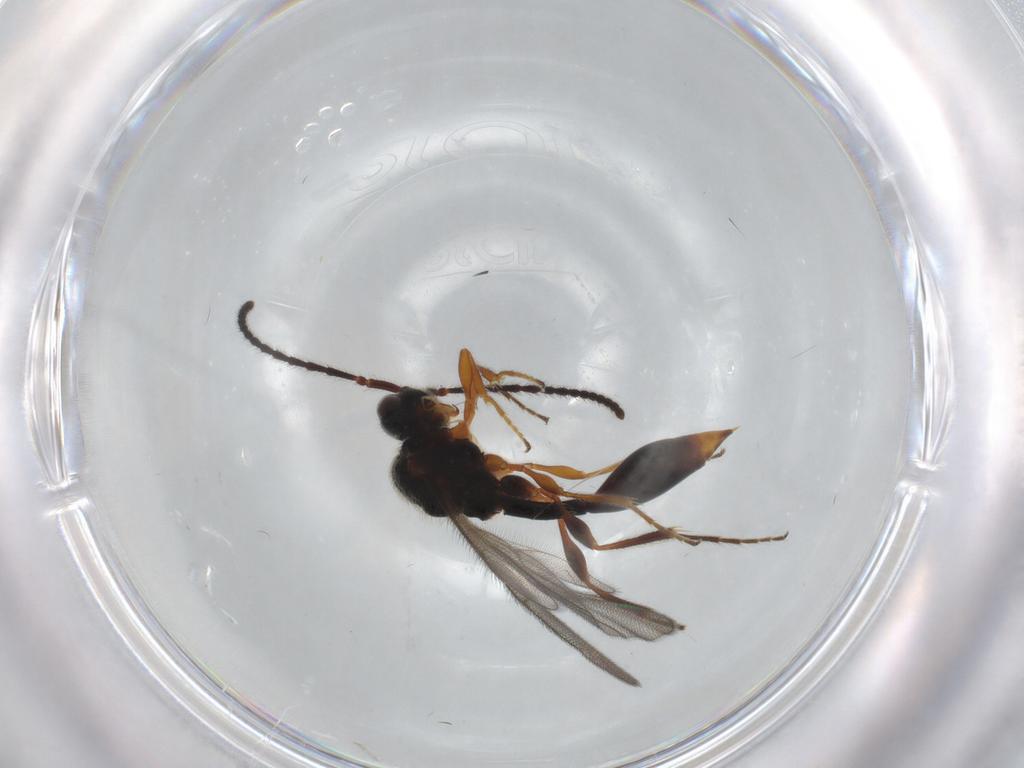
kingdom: Animalia
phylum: Arthropoda
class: Insecta
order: Hymenoptera
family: Diapriidae
